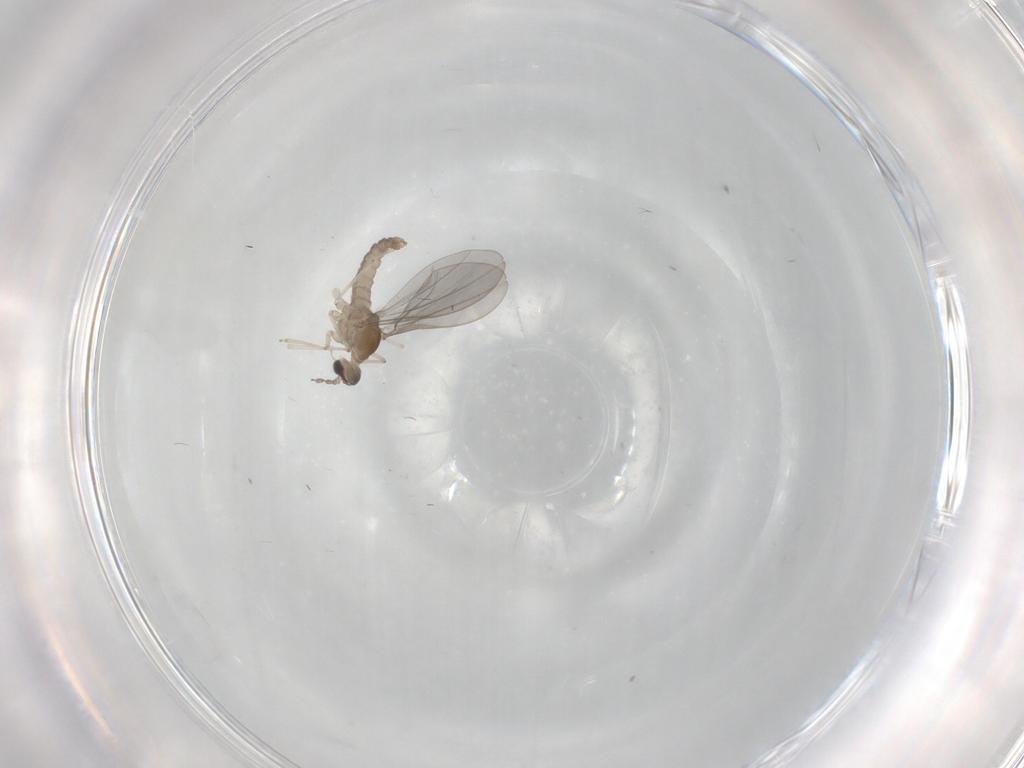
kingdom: Animalia
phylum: Arthropoda
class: Insecta
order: Diptera
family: Cecidomyiidae
